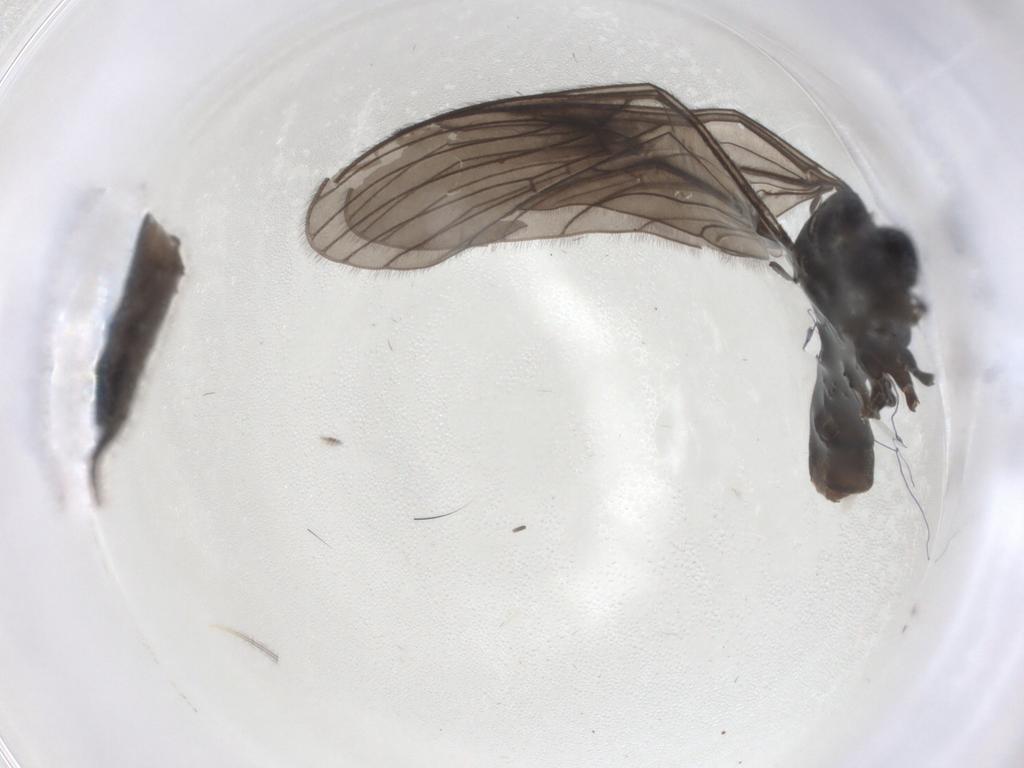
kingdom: Animalia
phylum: Arthropoda
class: Insecta
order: Diptera
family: Limoniidae
